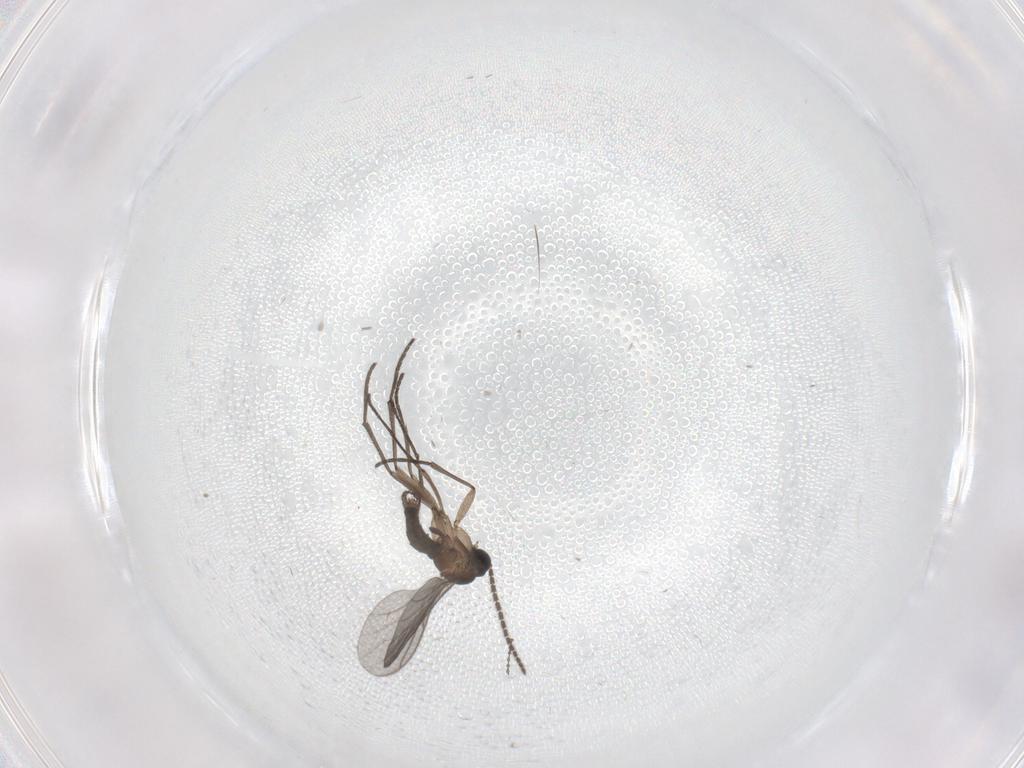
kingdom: Animalia
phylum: Arthropoda
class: Insecta
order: Diptera
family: Sciaridae
